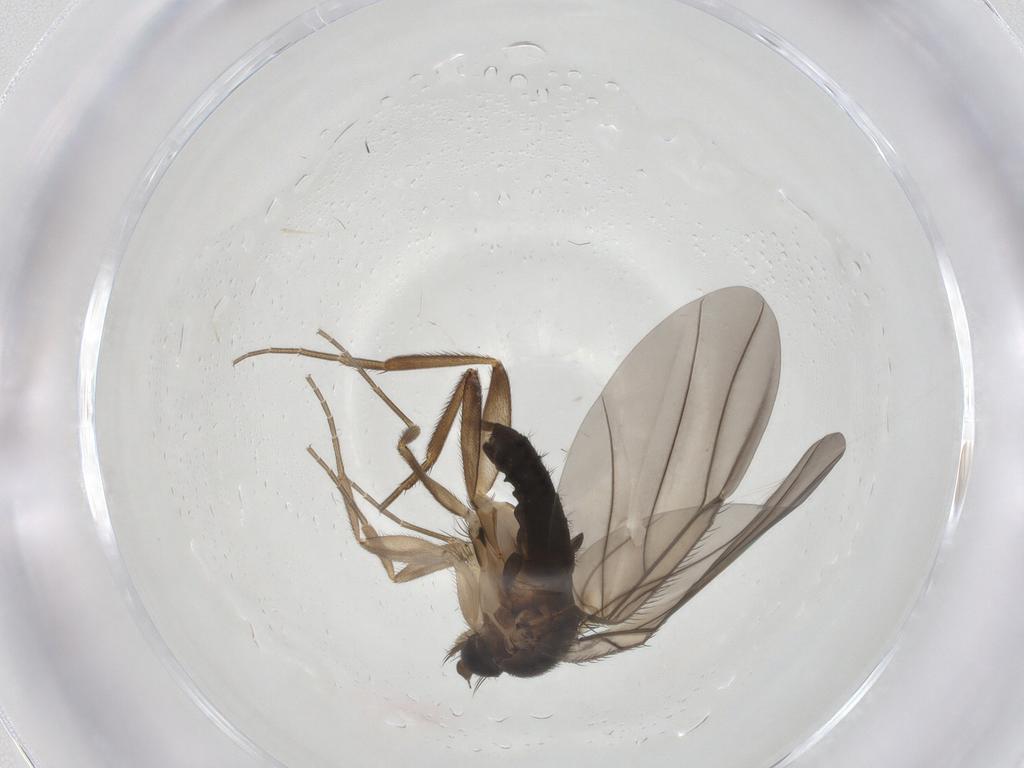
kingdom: Animalia
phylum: Arthropoda
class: Insecta
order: Diptera
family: Phoridae
